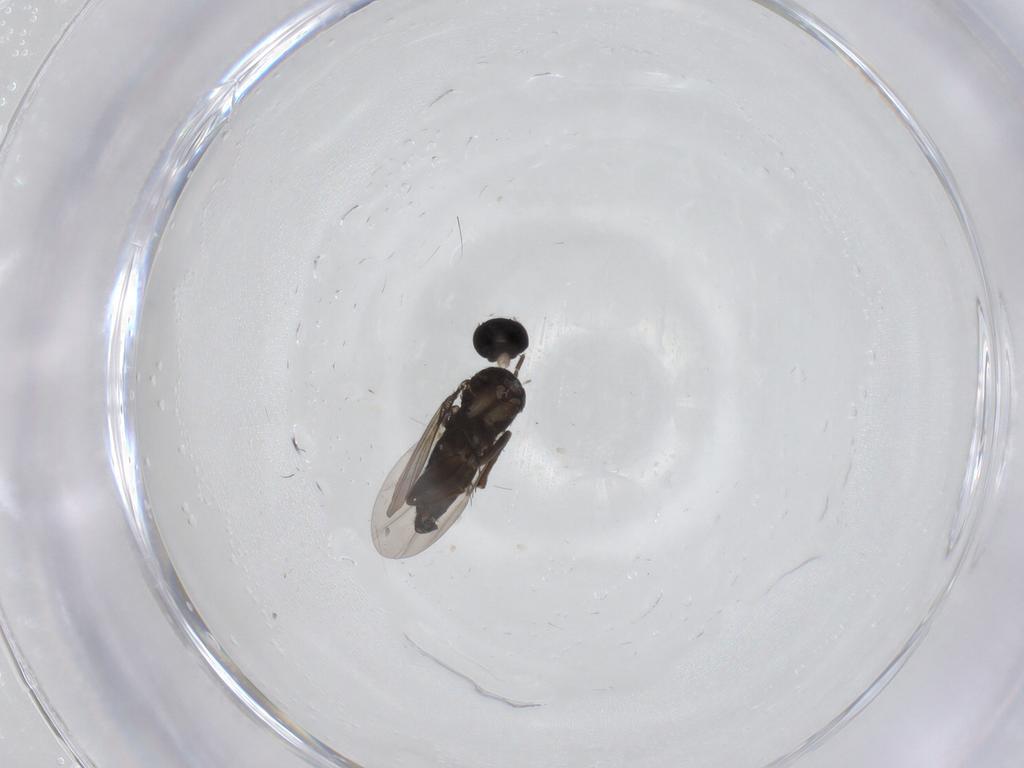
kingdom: Animalia
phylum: Arthropoda
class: Insecta
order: Diptera
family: Sciaridae
